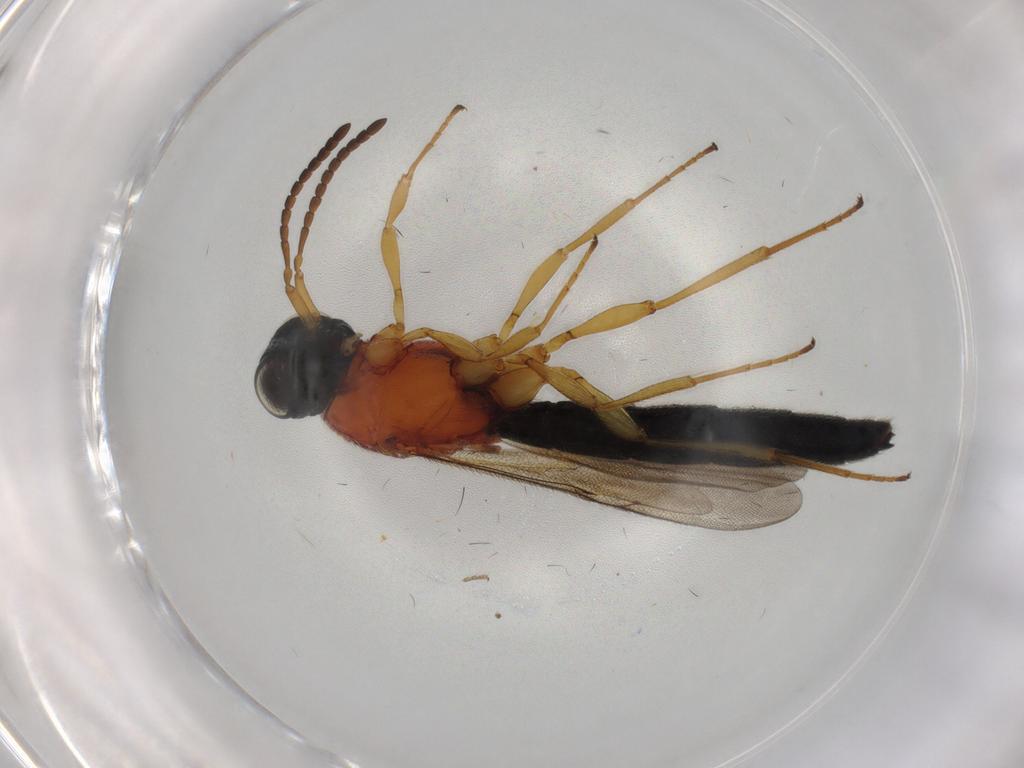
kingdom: Animalia
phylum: Arthropoda
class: Insecta
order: Hymenoptera
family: Scelionidae
